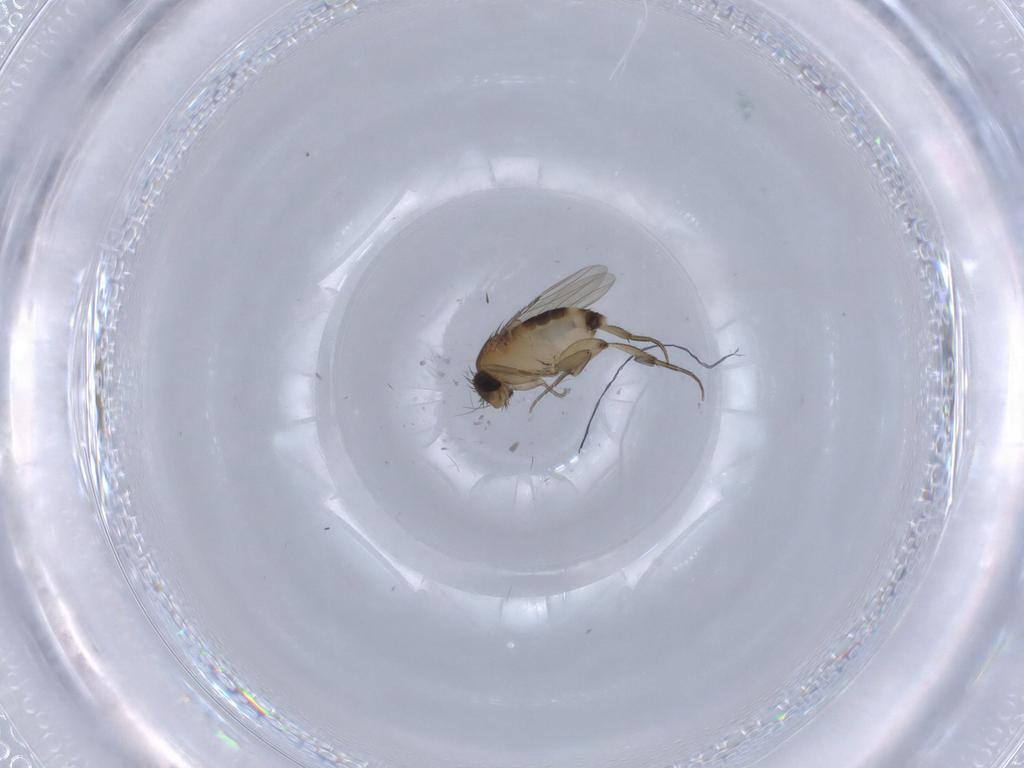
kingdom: Animalia
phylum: Arthropoda
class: Insecta
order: Diptera
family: Phoridae
